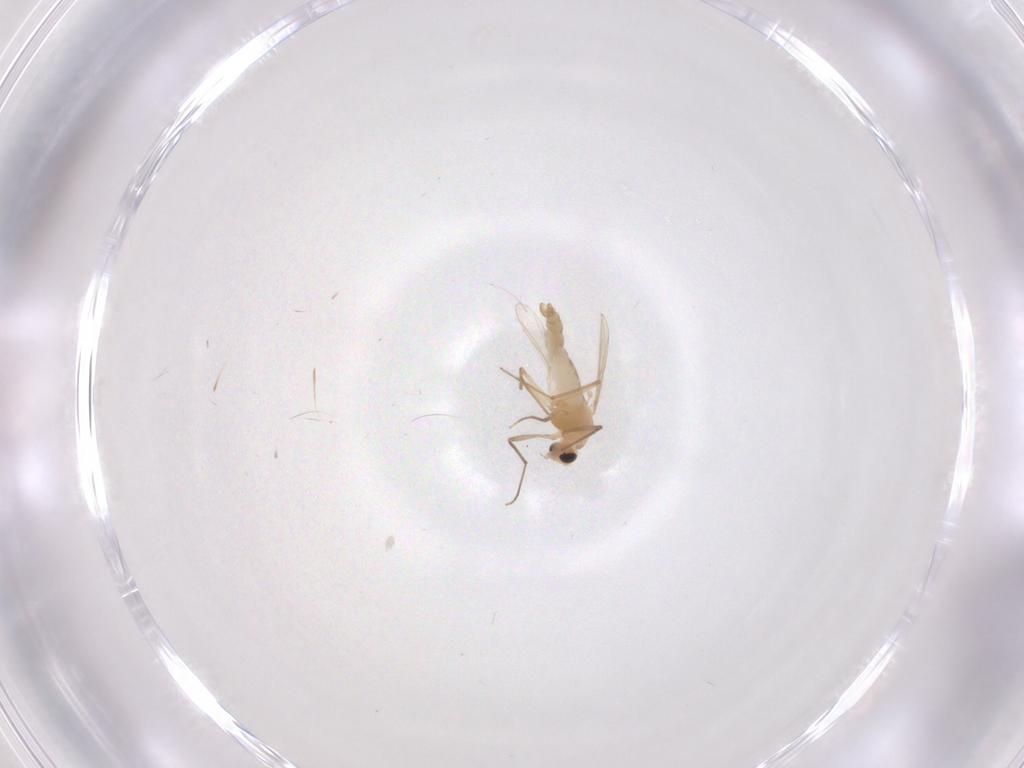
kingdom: Animalia
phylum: Arthropoda
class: Insecta
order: Diptera
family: Chironomidae
